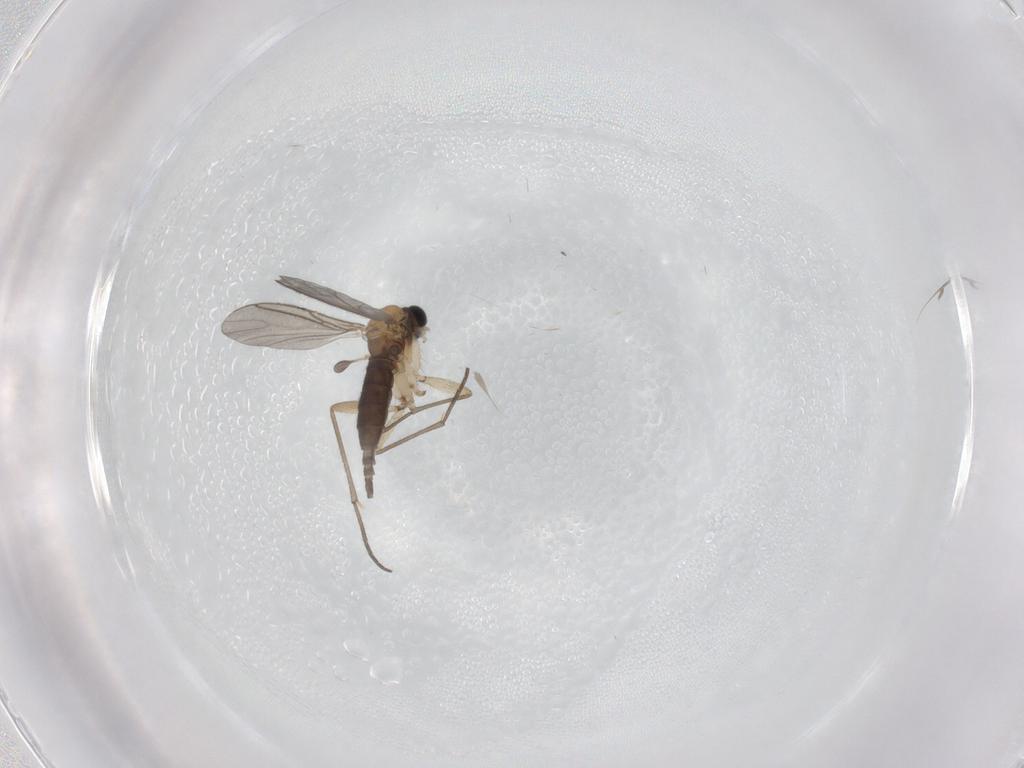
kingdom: Animalia
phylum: Arthropoda
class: Insecta
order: Diptera
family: Sciaridae
